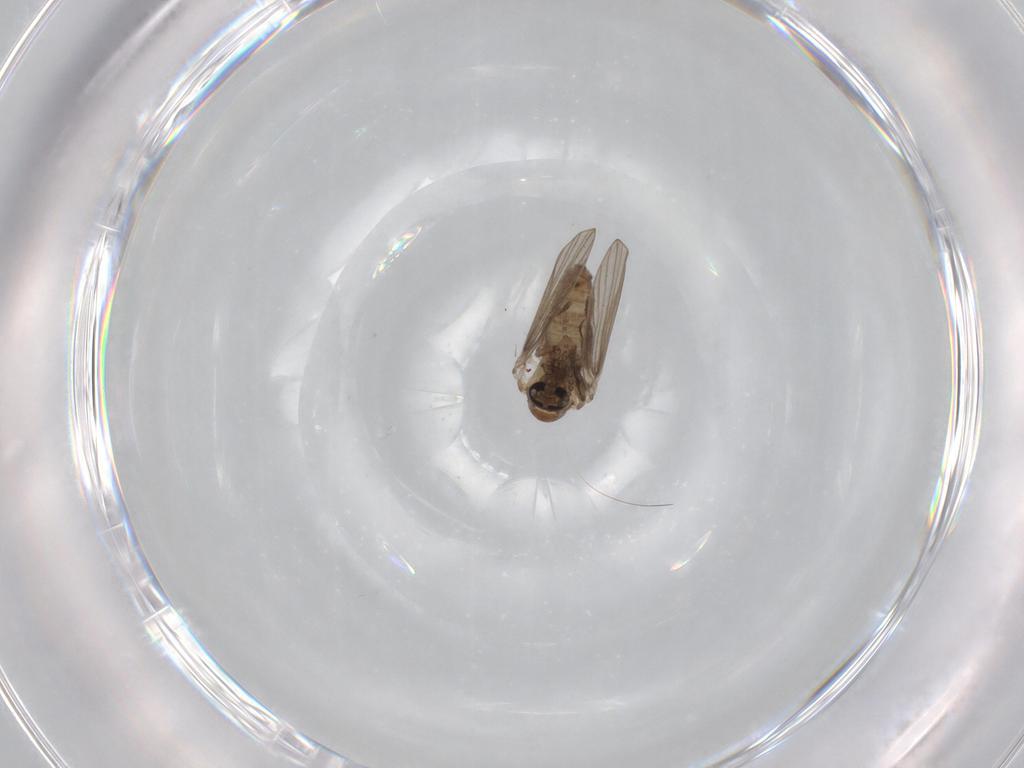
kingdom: Animalia
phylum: Arthropoda
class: Insecta
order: Diptera
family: Psychodidae
